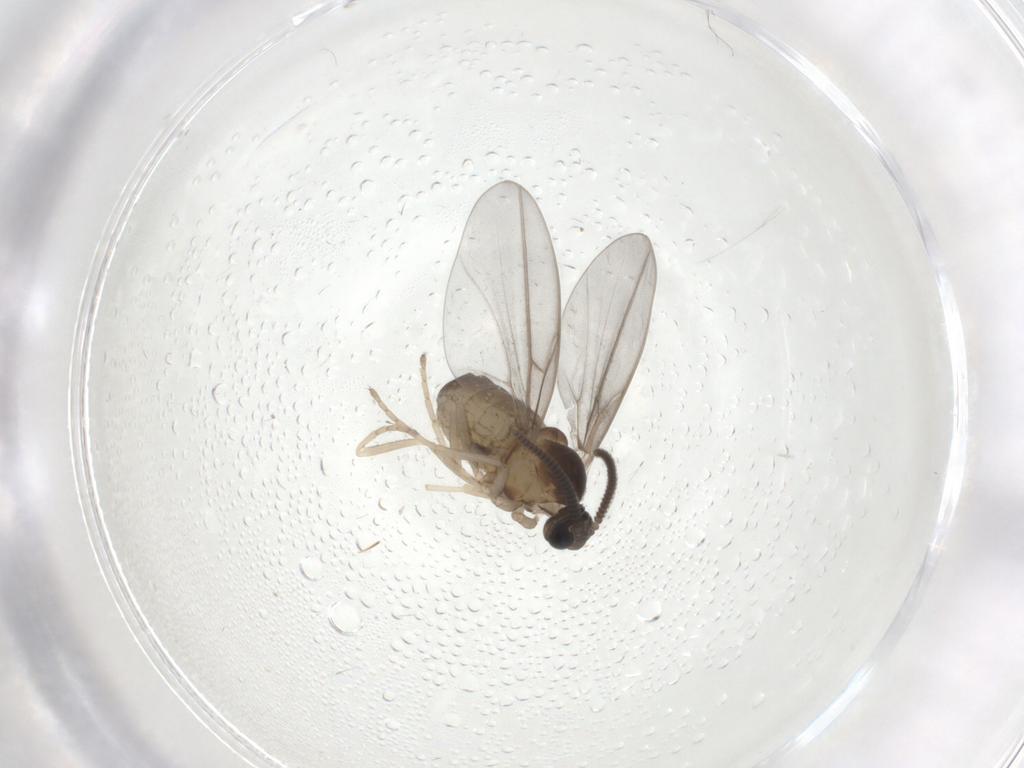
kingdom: Animalia
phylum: Arthropoda
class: Insecta
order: Diptera
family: Cecidomyiidae
